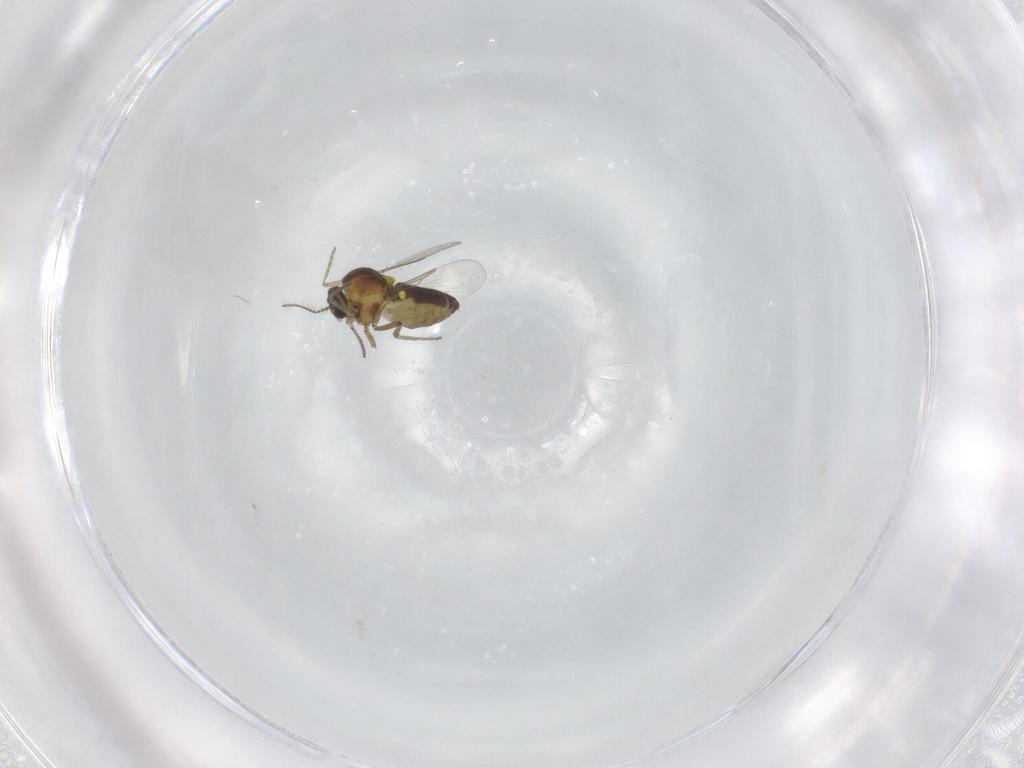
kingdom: Animalia
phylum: Arthropoda
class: Insecta
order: Diptera
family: Ceratopogonidae
